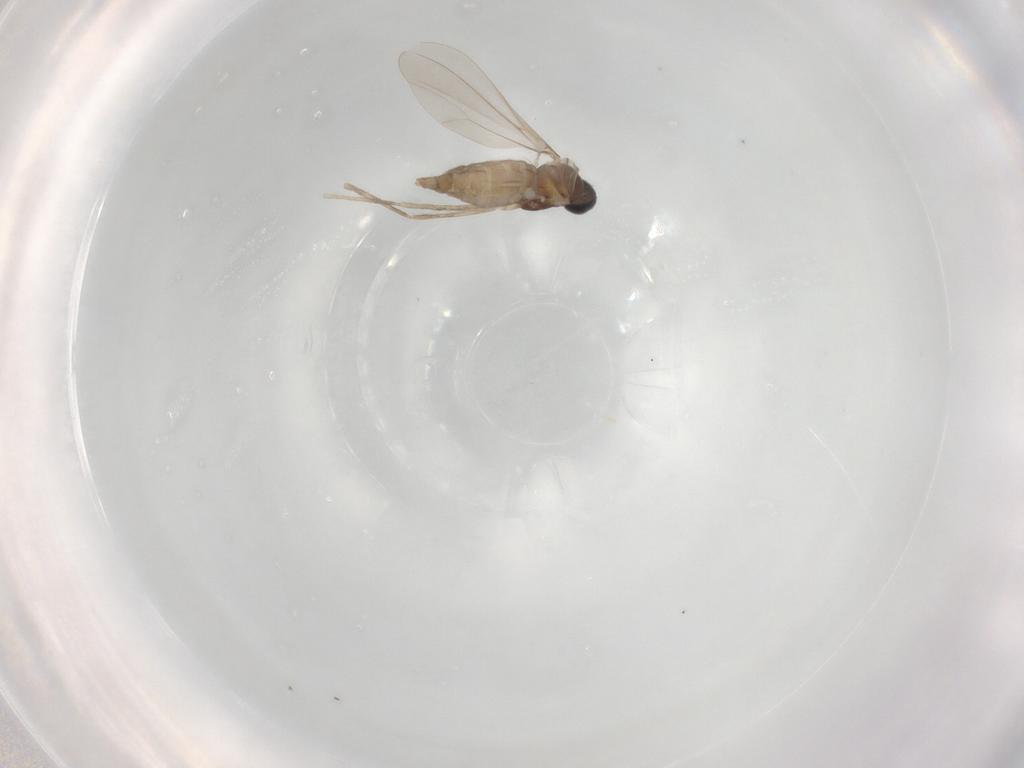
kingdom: Animalia
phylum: Arthropoda
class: Insecta
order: Diptera
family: Cecidomyiidae
